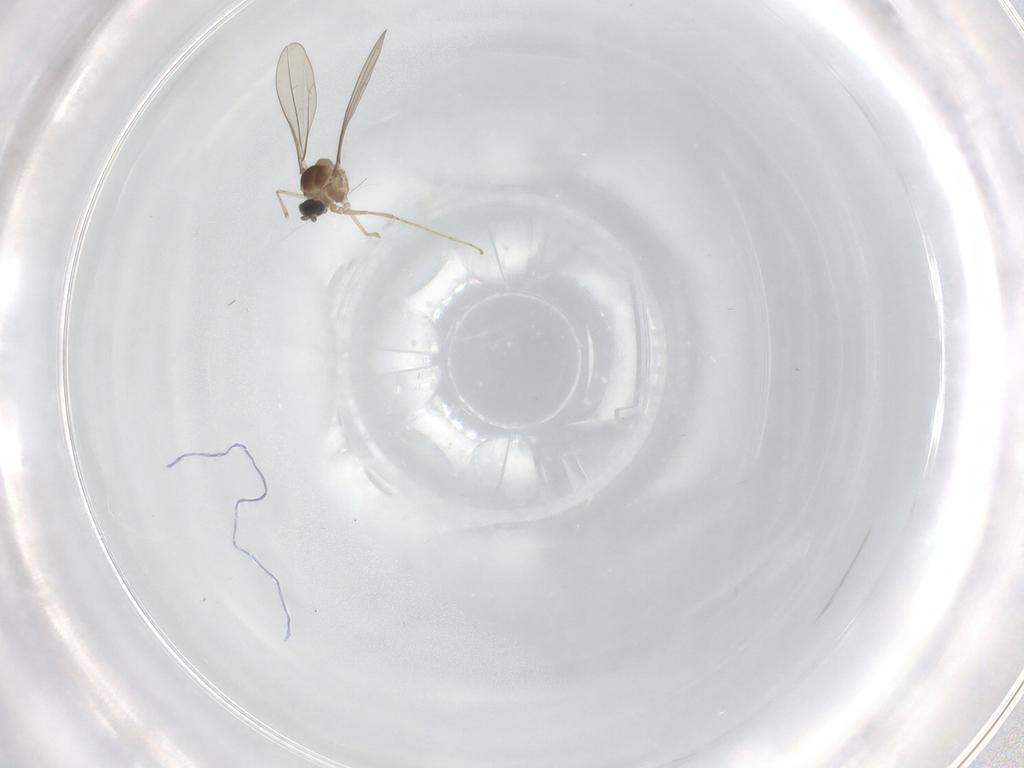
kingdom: Animalia
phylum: Arthropoda
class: Insecta
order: Diptera
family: Cecidomyiidae
